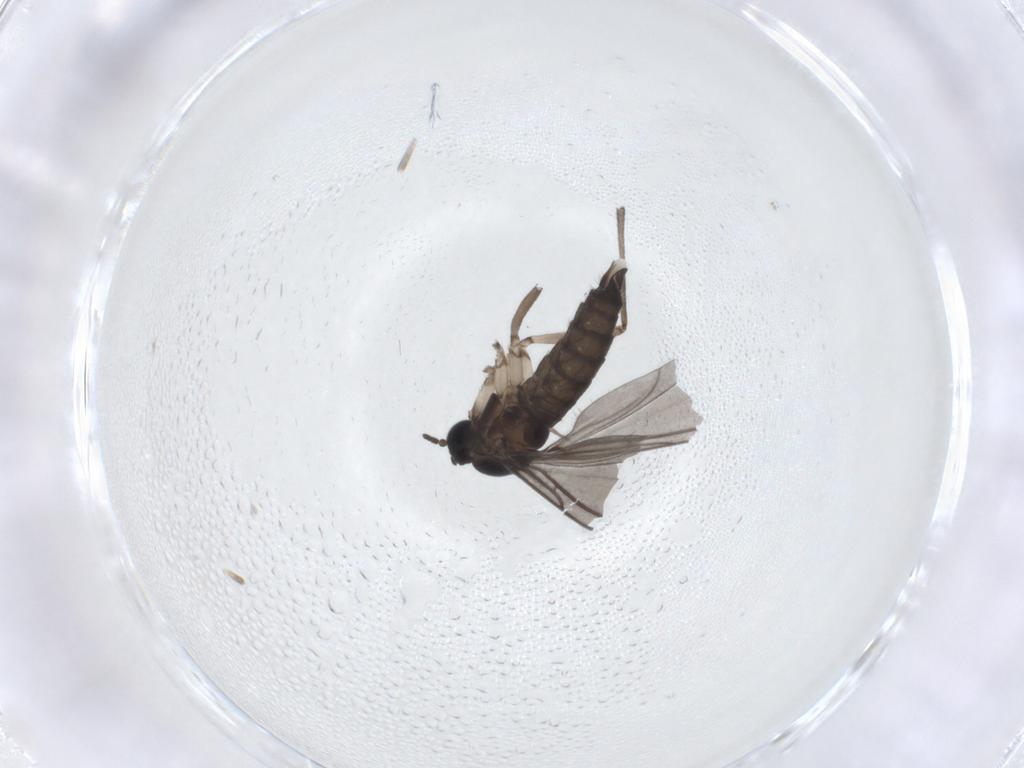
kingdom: Animalia
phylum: Arthropoda
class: Insecta
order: Diptera
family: Sciaridae
